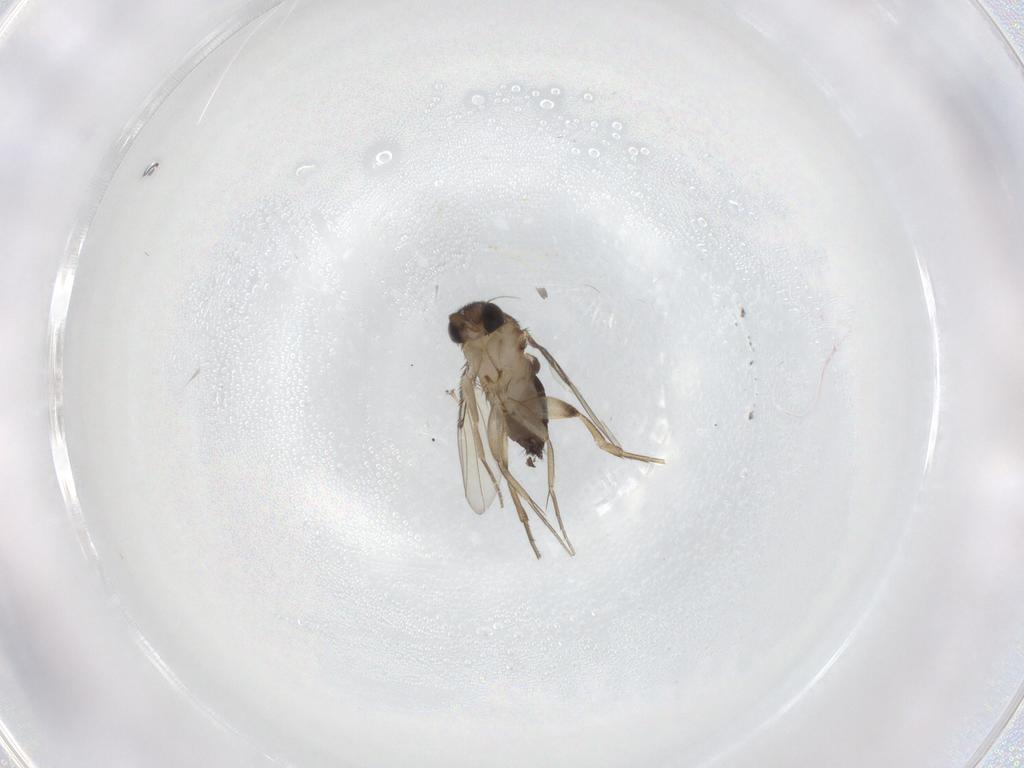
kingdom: Animalia
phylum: Arthropoda
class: Insecta
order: Diptera
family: Phoridae
